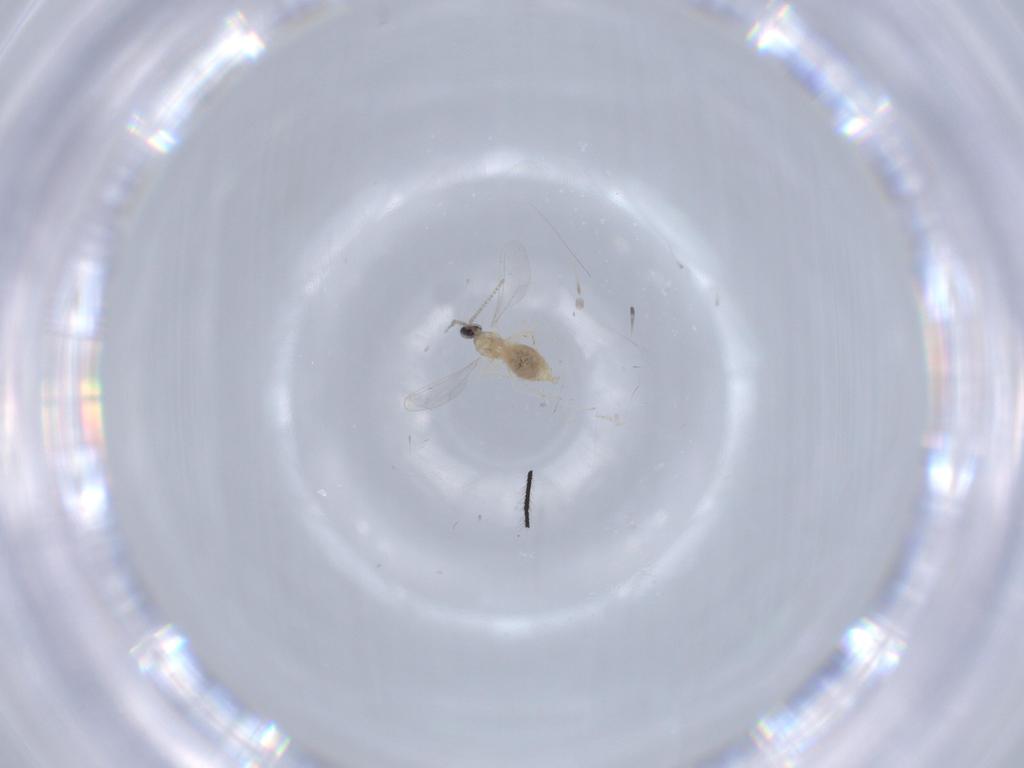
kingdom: Animalia
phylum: Arthropoda
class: Insecta
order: Diptera
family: Cecidomyiidae
